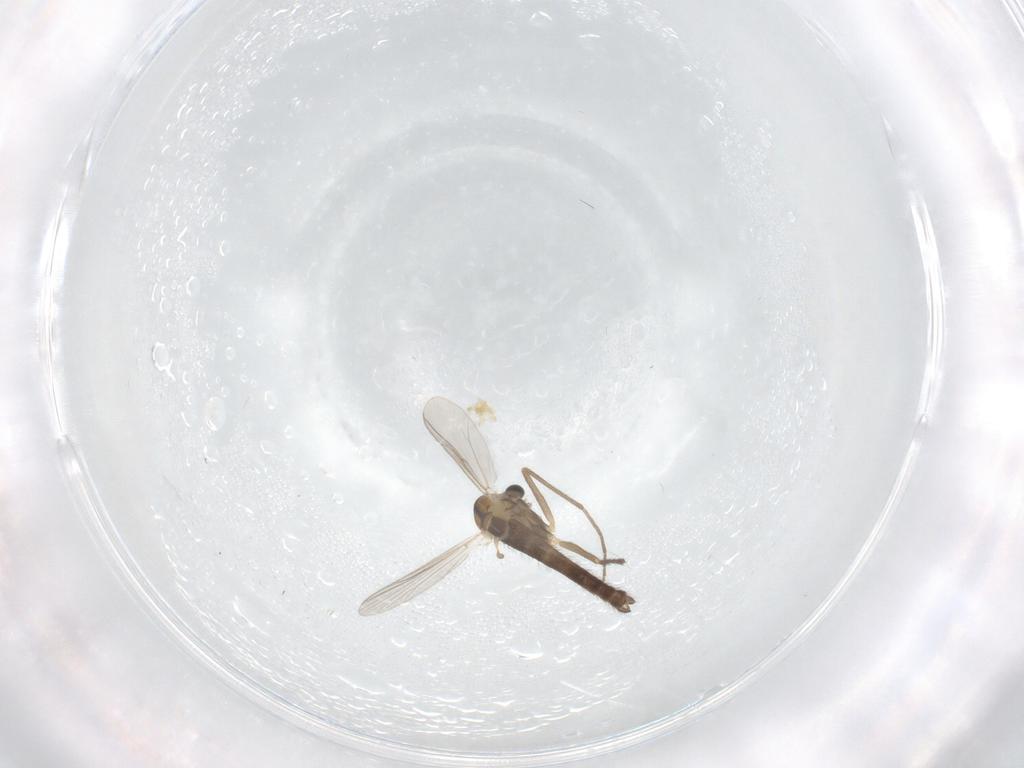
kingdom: Animalia
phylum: Arthropoda
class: Insecta
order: Diptera
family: Chironomidae
